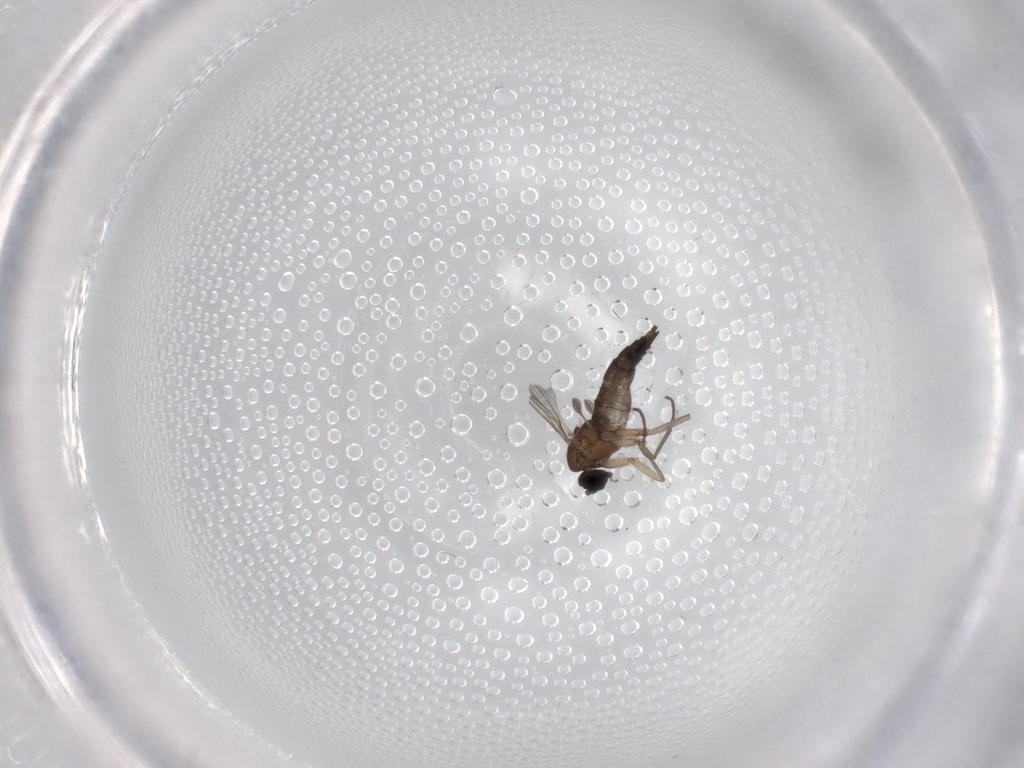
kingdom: Animalia
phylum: Arthropoda
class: Insecta
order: Diptera
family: Sciaridae
